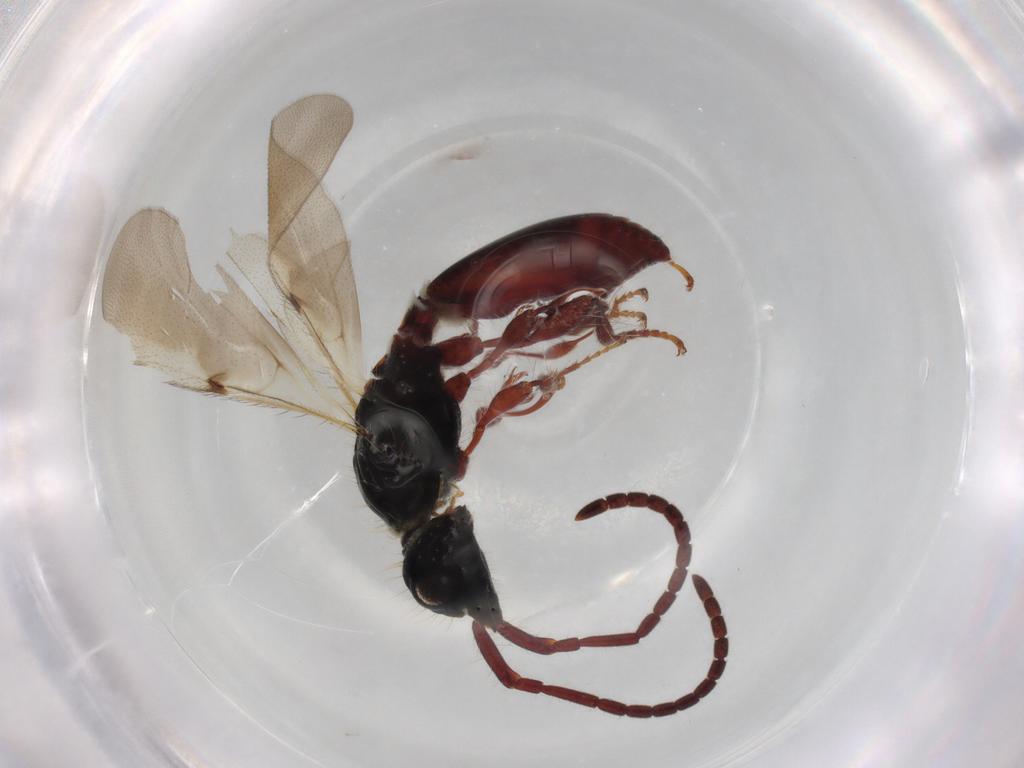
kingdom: Animalia
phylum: Arthropoda
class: Insecta
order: Hymenoptera
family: Diapriidae
